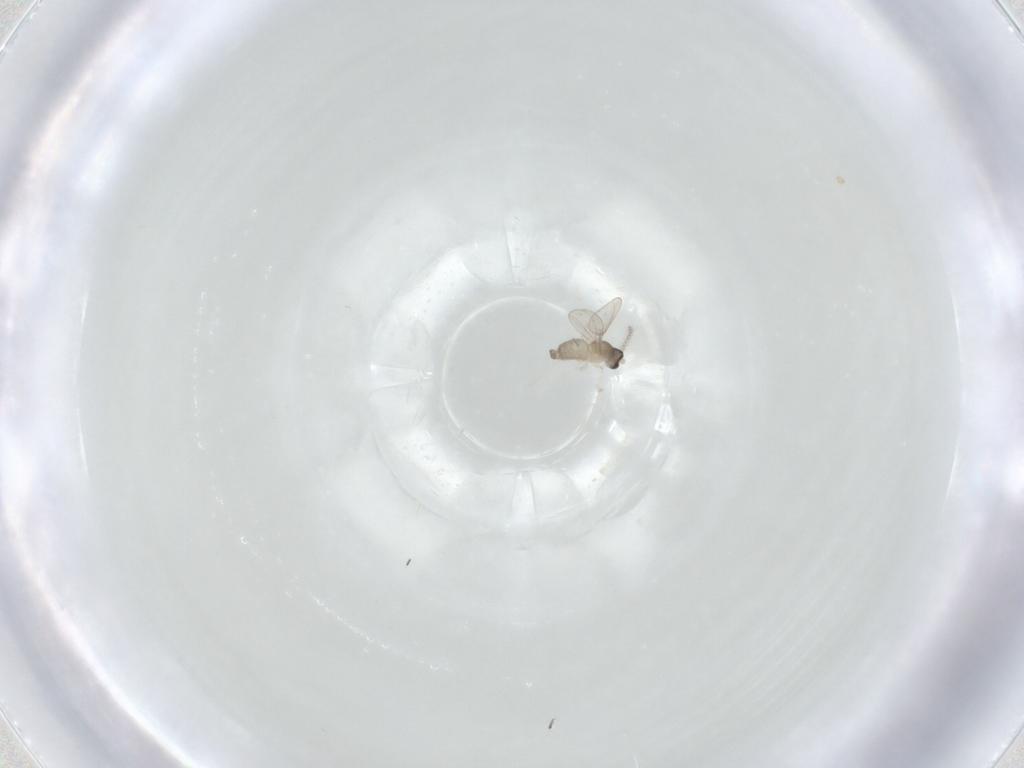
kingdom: Animalia
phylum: Arthropoda
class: Insecta
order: Diptera
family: Cecidomyiidae
